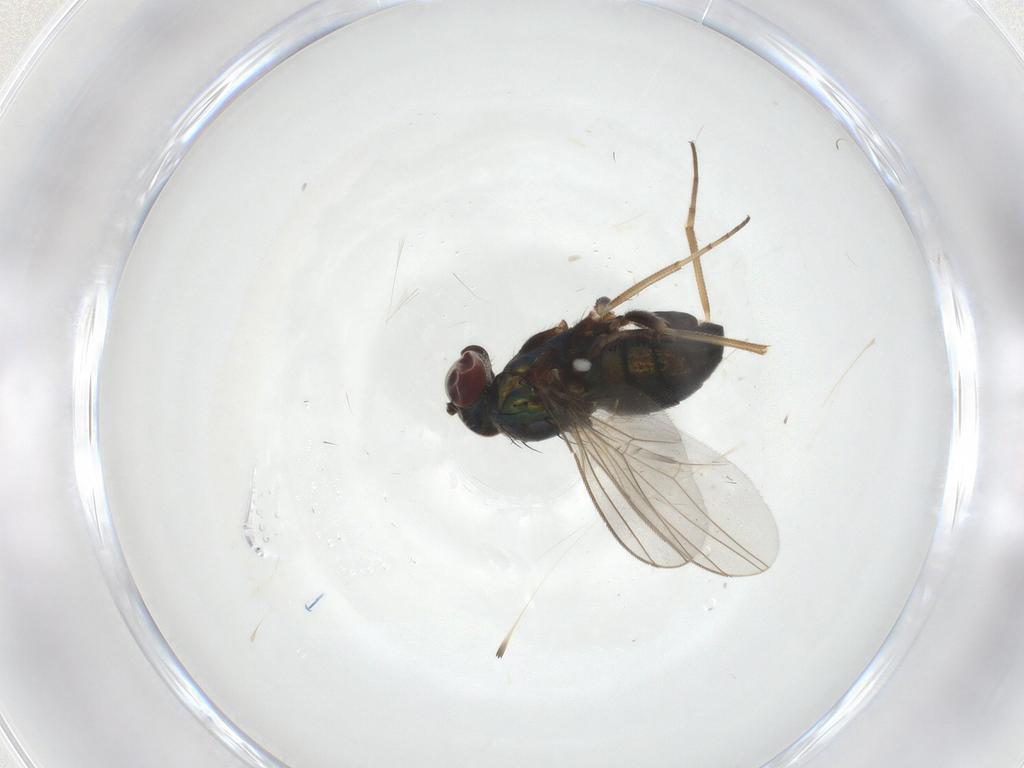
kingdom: Animalia
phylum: Arthropoda
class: Insecta
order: Diptera
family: Dolichopodidae
